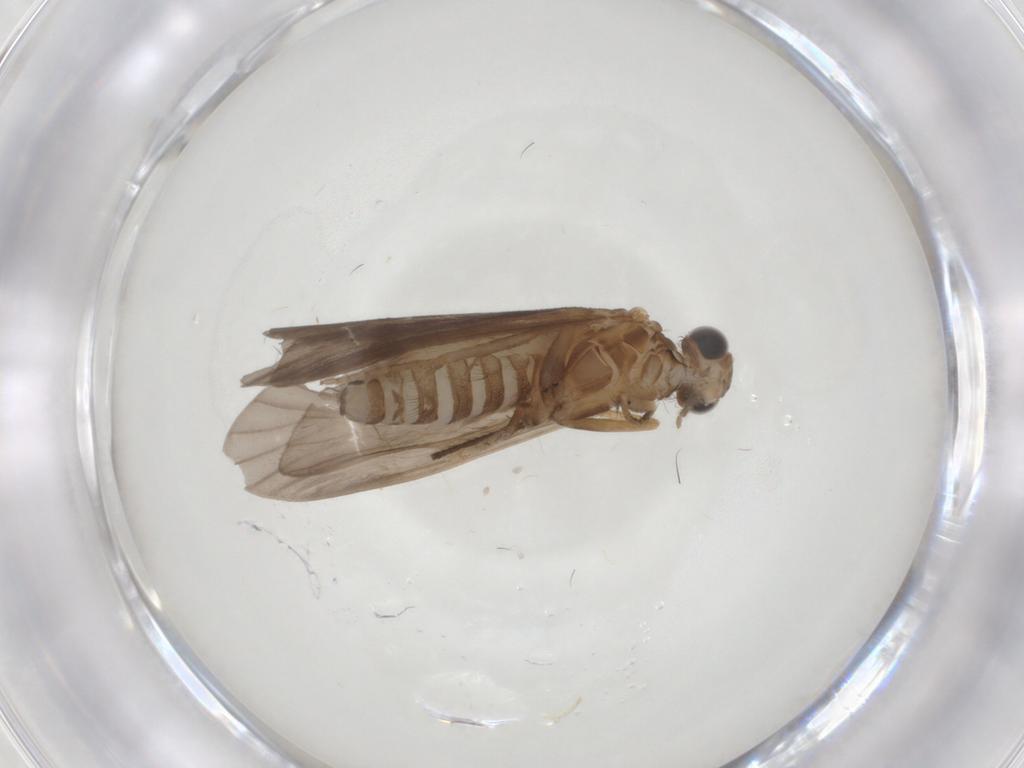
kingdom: Animalia
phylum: Arthropoda
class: Insecta
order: Trichoptera
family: Helicopsychidae
